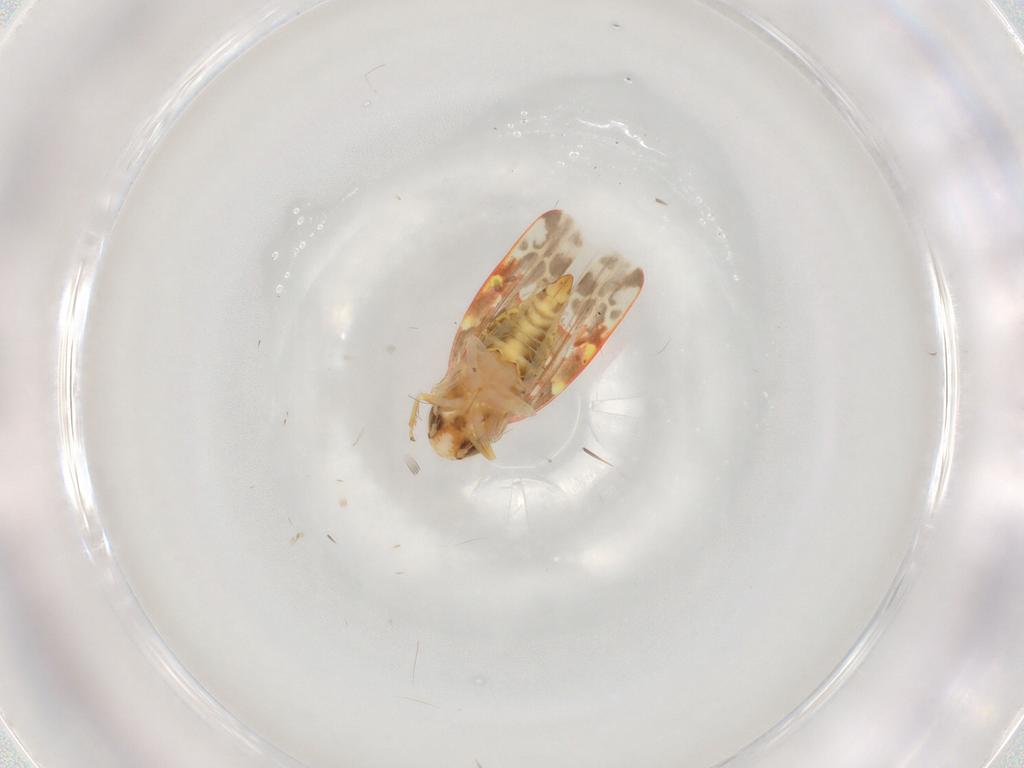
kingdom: Animalia
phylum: Arthropoda
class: Insecta
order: Hemiptera
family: Cicadellidae
